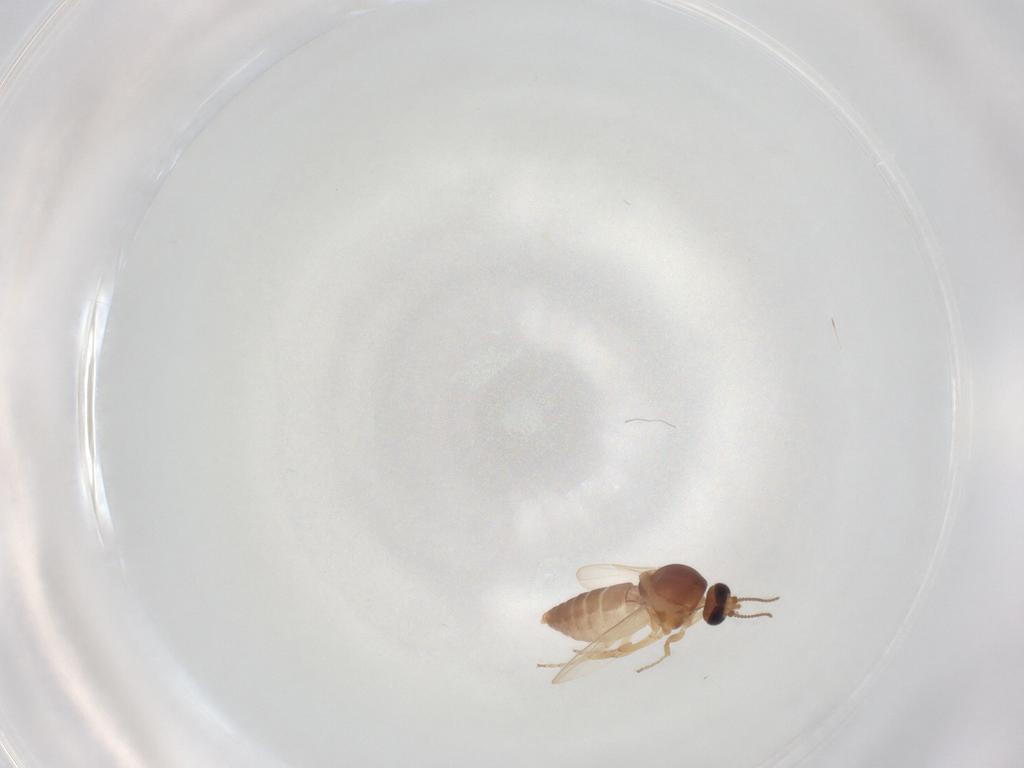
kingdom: Animalia
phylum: Arthropoda
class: Insecta
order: Diptera
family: Ceratopogonidae
